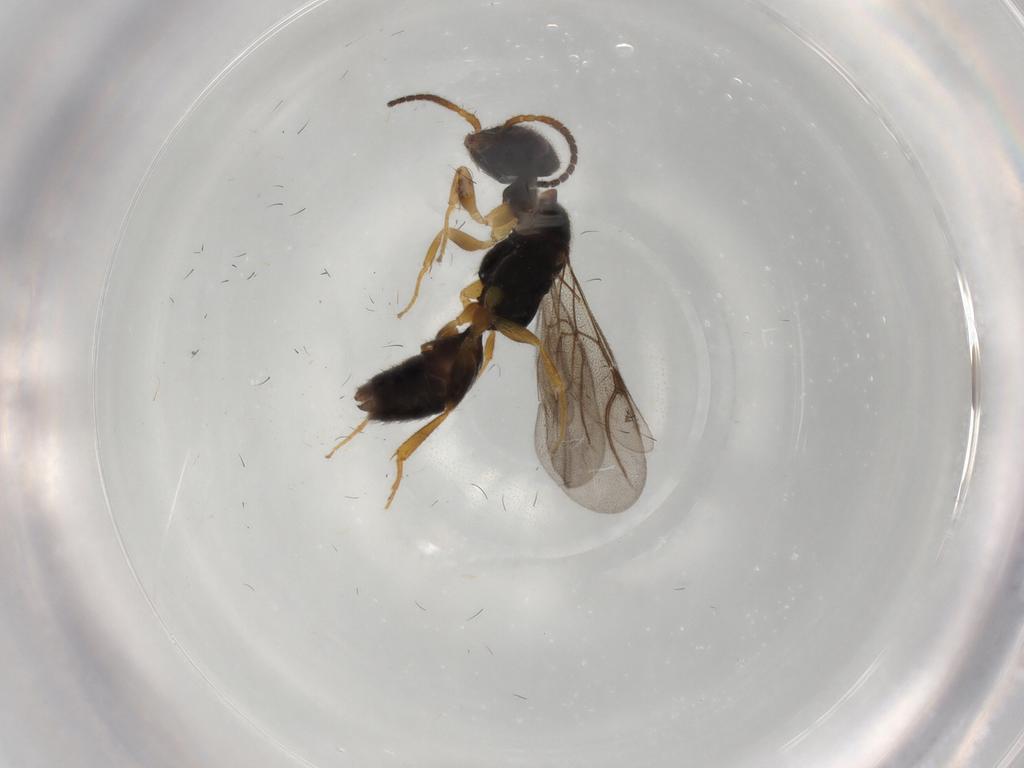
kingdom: Animalia
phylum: Arthropoda
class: Insecta
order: Hymenoptera
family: Bethylidae
